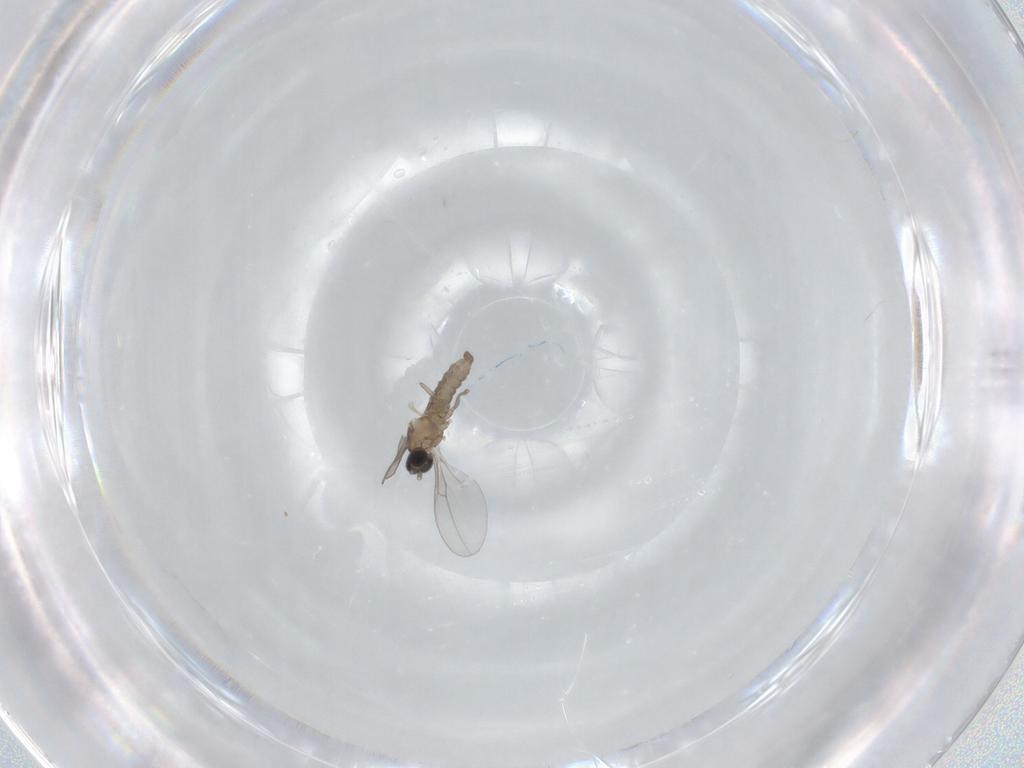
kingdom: Animalia
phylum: Arthropoda
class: Insecta
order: Diptera
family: Cecidomyiidae
